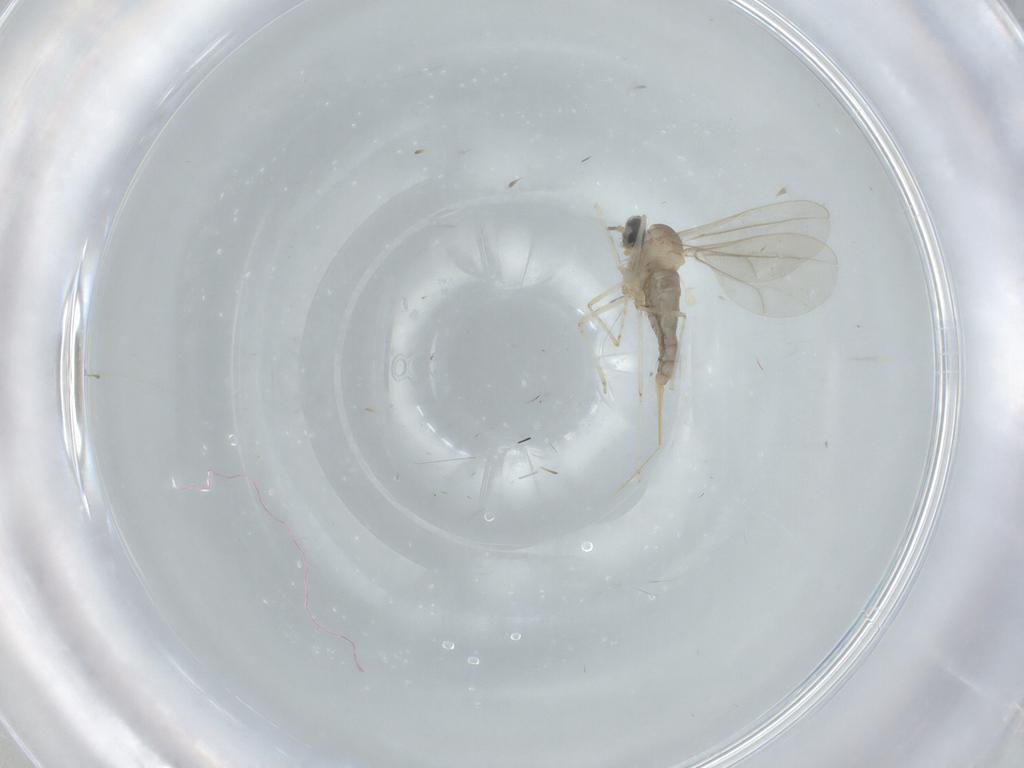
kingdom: Animalia
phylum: Arthropoda
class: Insecta
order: Diptera
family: Cecidomyiidae
